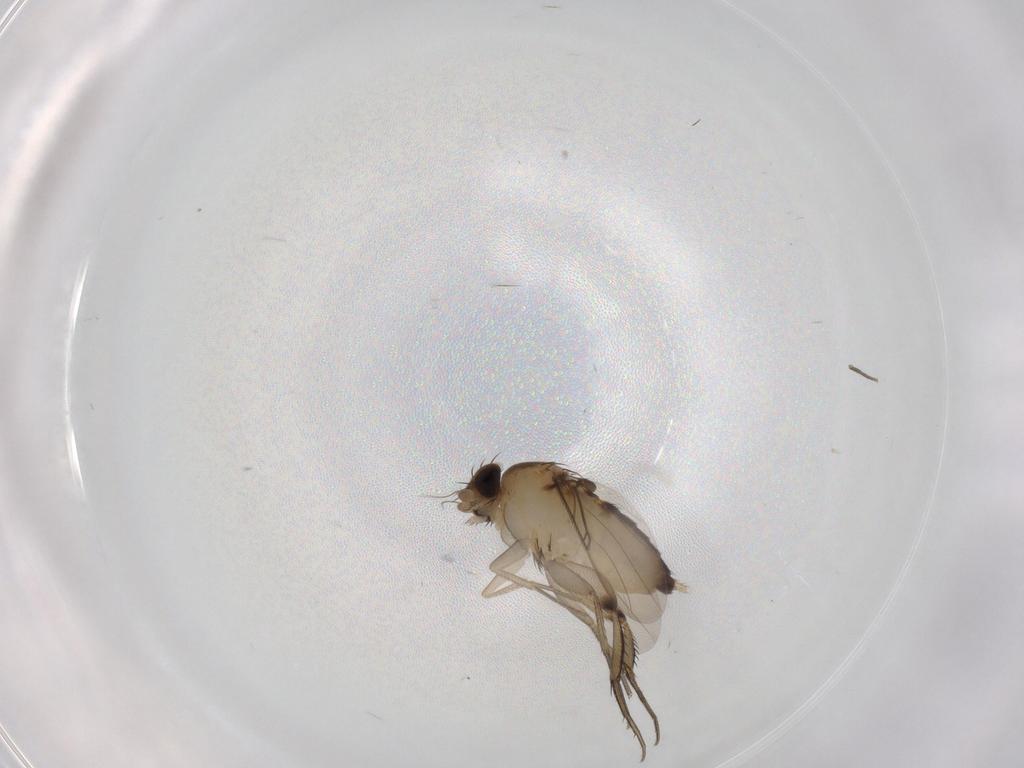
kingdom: Animalia
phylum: Arthropoda
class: Insecta
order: Diptera
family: Phoridae
